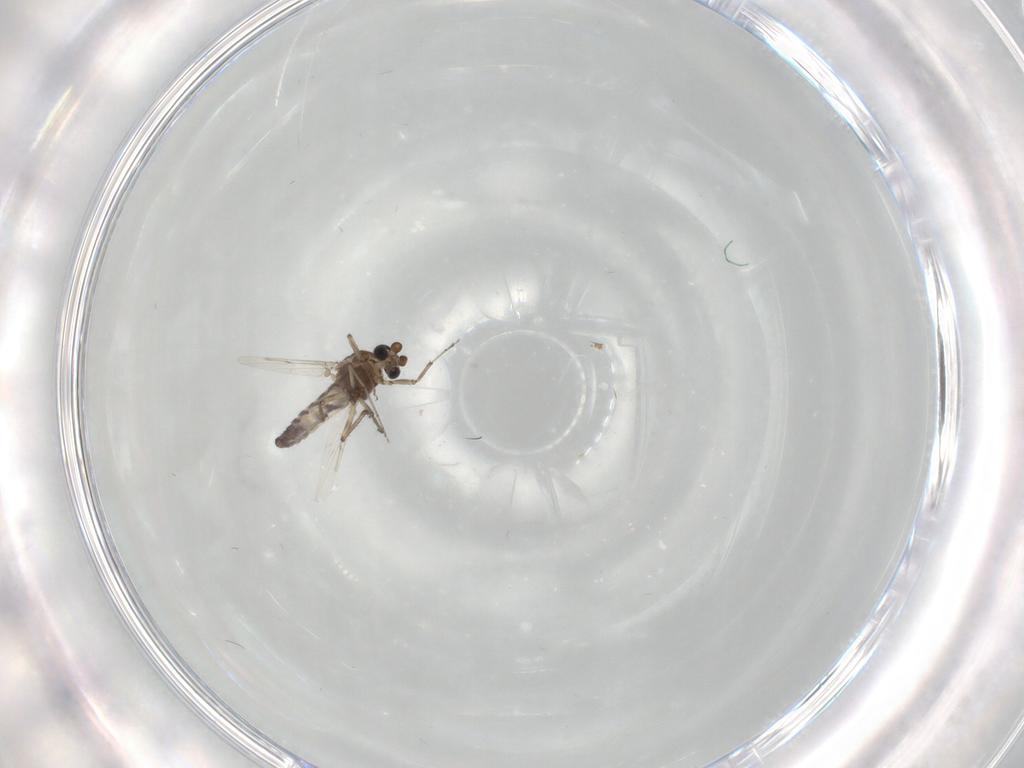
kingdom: Animalia
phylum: Arthropoda
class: Insecta
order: Diptera
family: Ceratopogonidae
